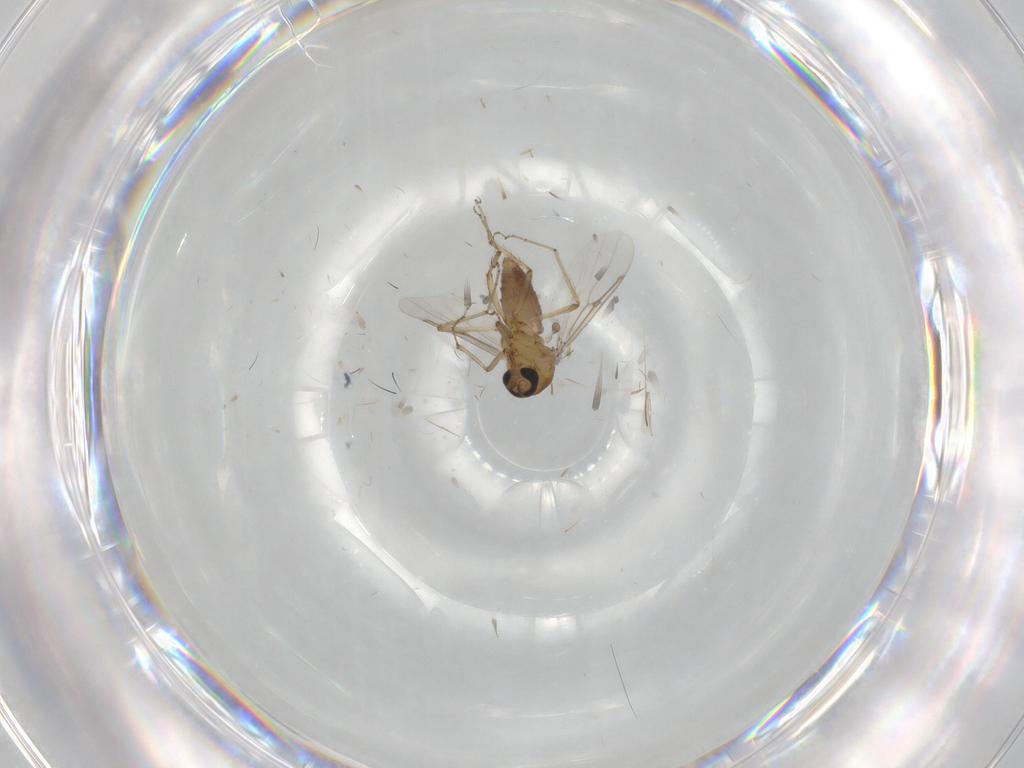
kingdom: Animalia
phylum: Arthropoda
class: Insecta
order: Diptera
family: Ceratopogonidae
